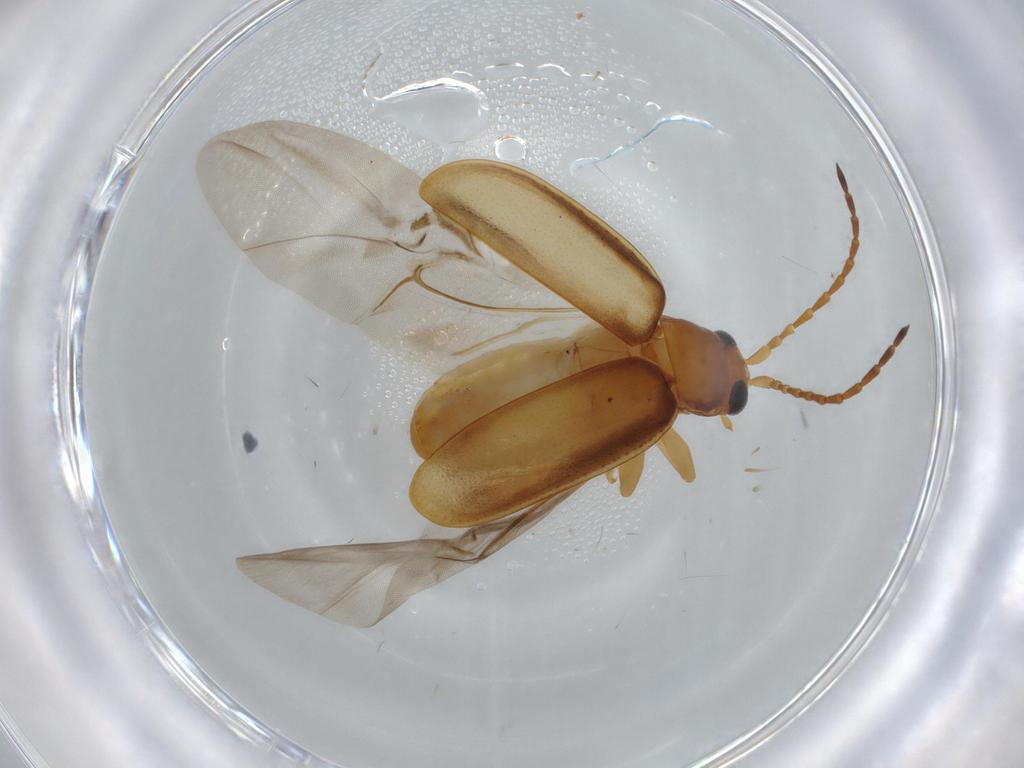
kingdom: Animalia
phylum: Arthropoda
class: Insecta
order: Coleoptera
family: Chrysomelidae
